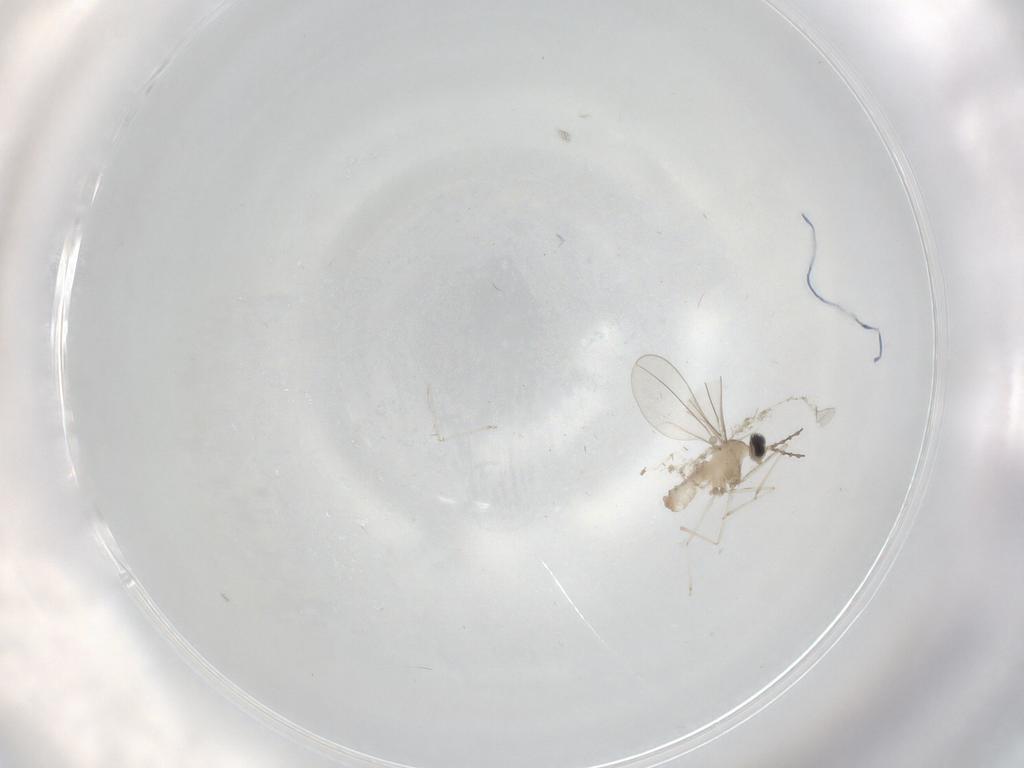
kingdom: Animalia
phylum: Arthropoda
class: Insecta
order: Diptera
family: Cecidomyiidae
